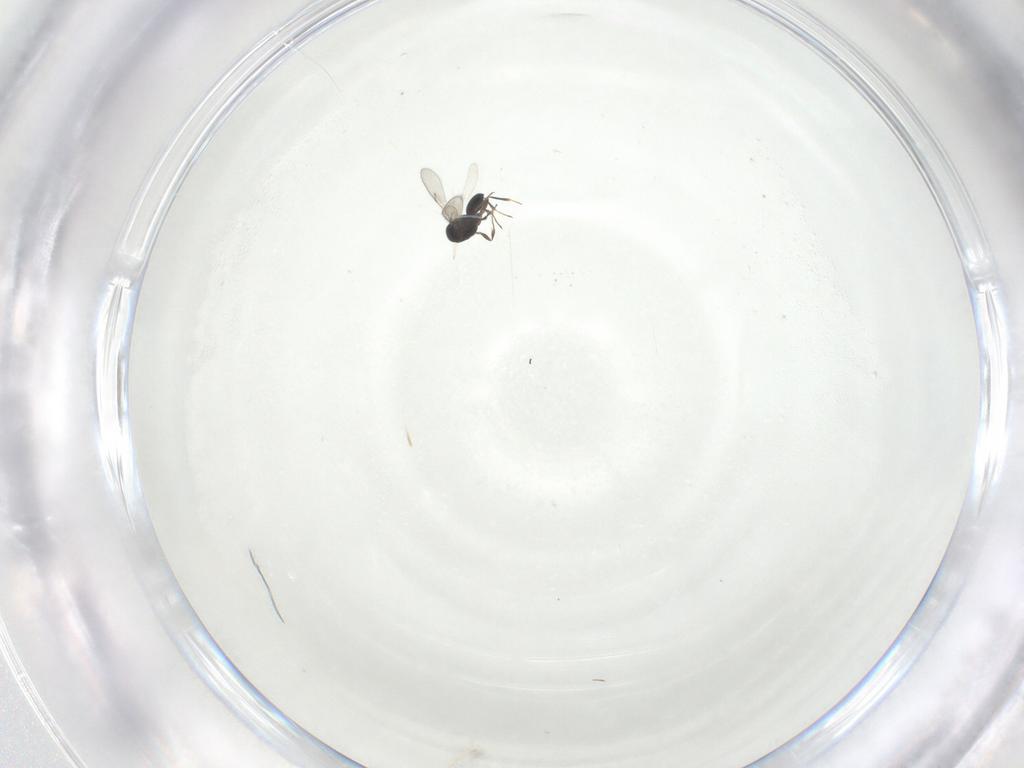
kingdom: Animalia
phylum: Arthropoda
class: Insecta
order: Hymenoptera
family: Scelionidae
